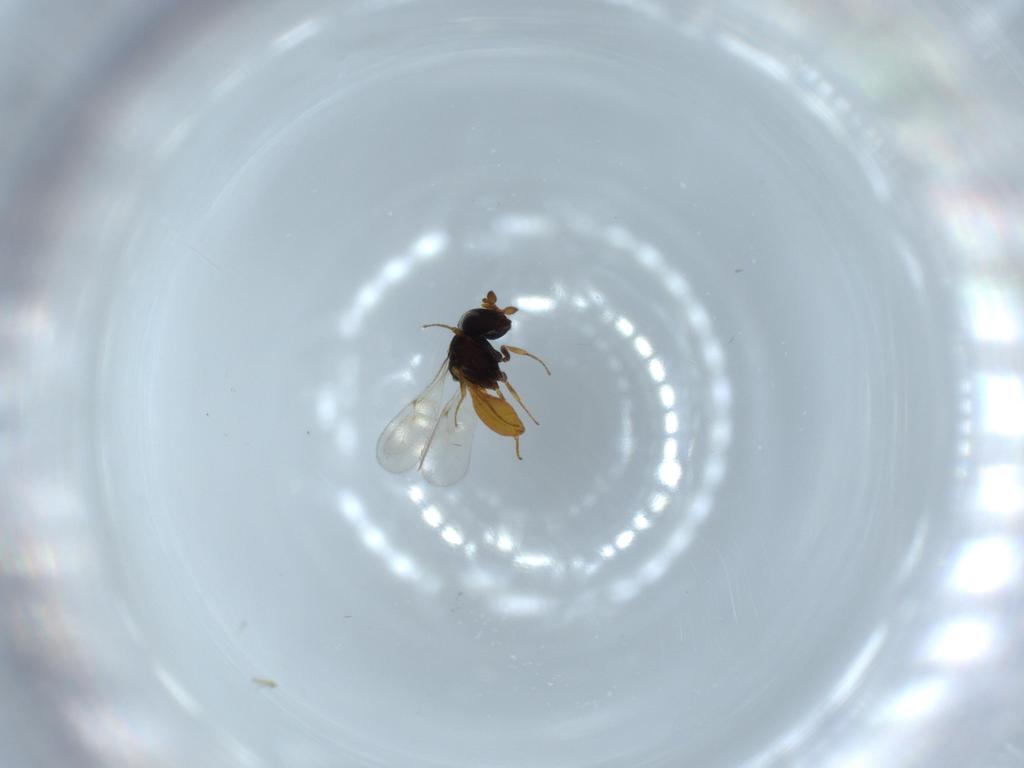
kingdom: Animalia
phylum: Arthropoda
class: Insecta
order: Hymenoptera
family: Scelionidae
